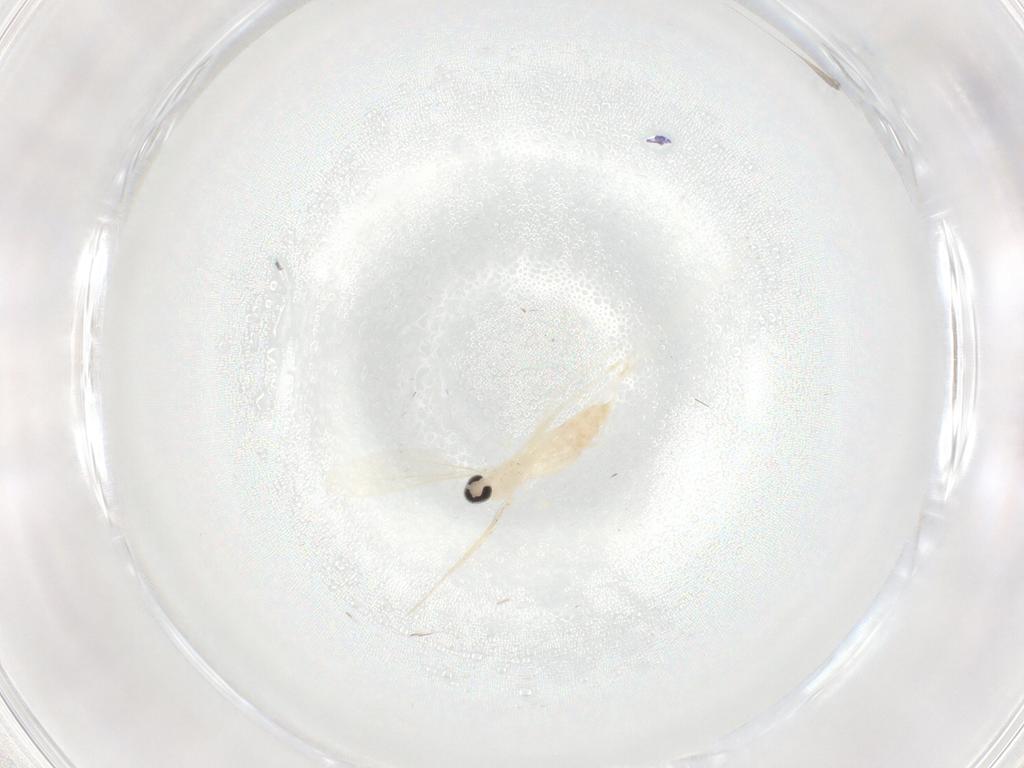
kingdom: Animalia
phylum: Arthropoda
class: Insecta
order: Diptera
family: Cecidomyiidae
